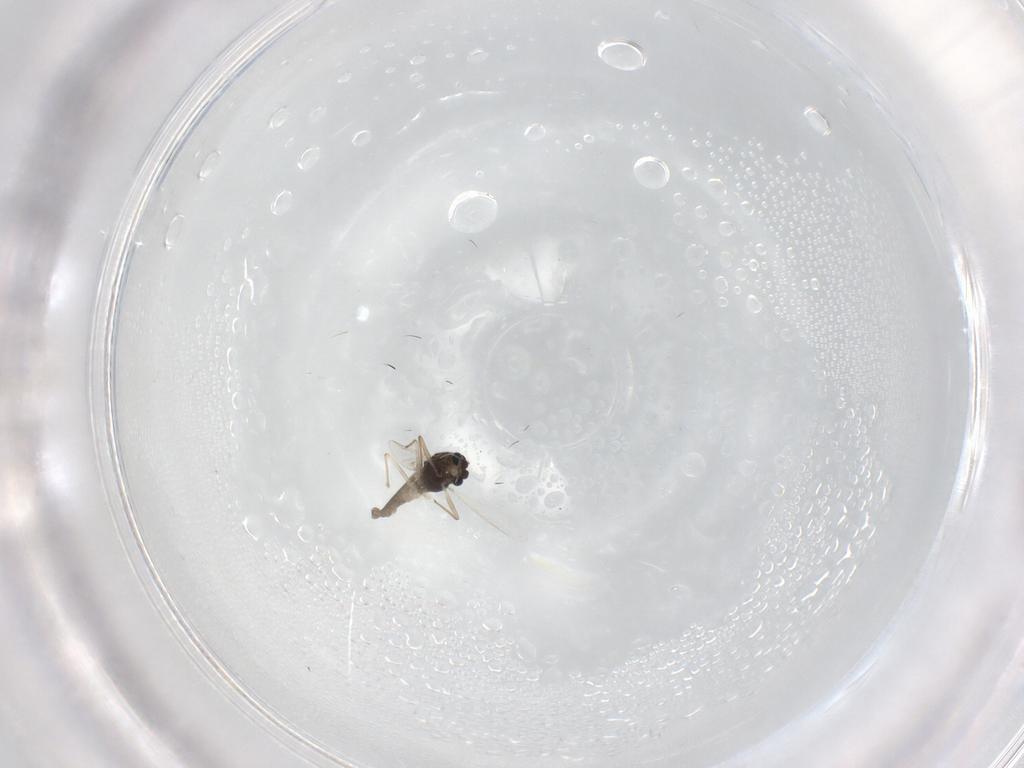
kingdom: Animalia
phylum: Arthropoda
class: Insecta
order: Diptera
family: Chironomidae
